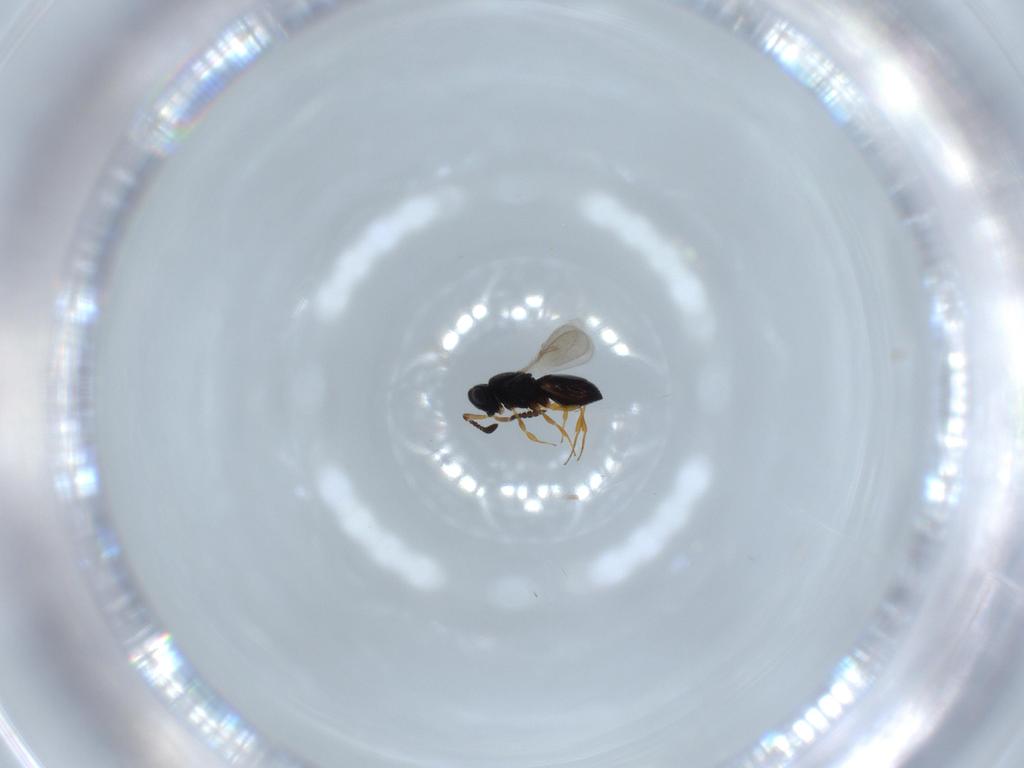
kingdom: Animalia
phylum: Arthropoda
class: Insecta
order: Hymenoptera
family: Scelionidae
